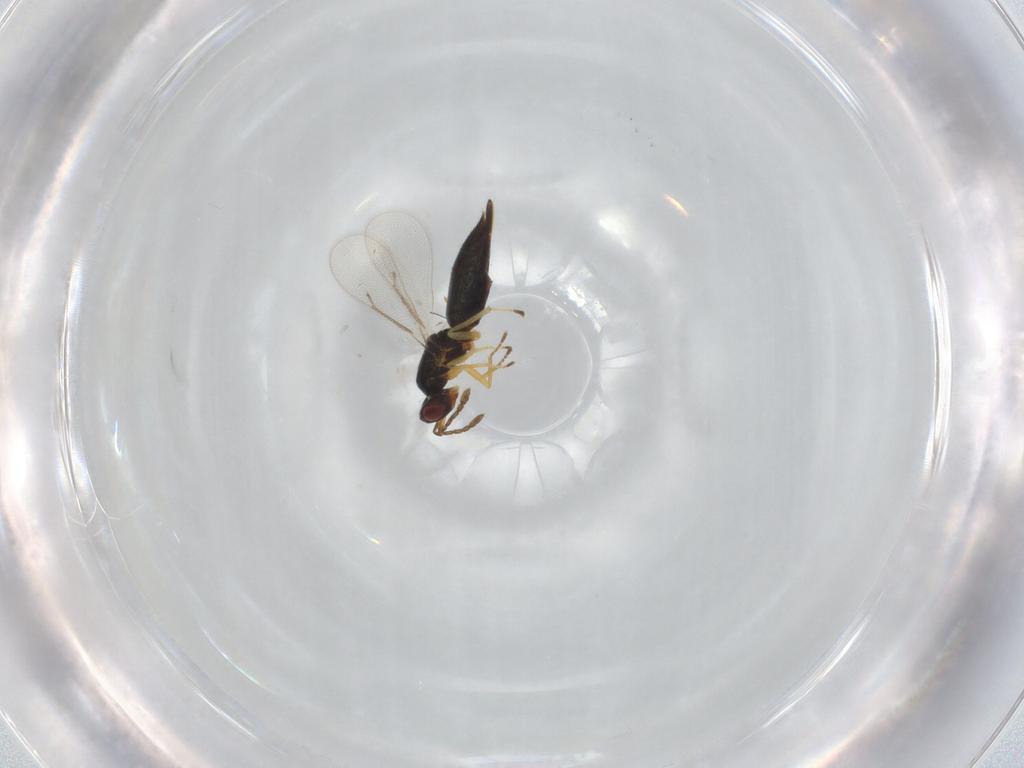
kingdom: Animalia
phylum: Arthropoda
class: Insecta
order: Hymenoptera
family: Eulophidae
